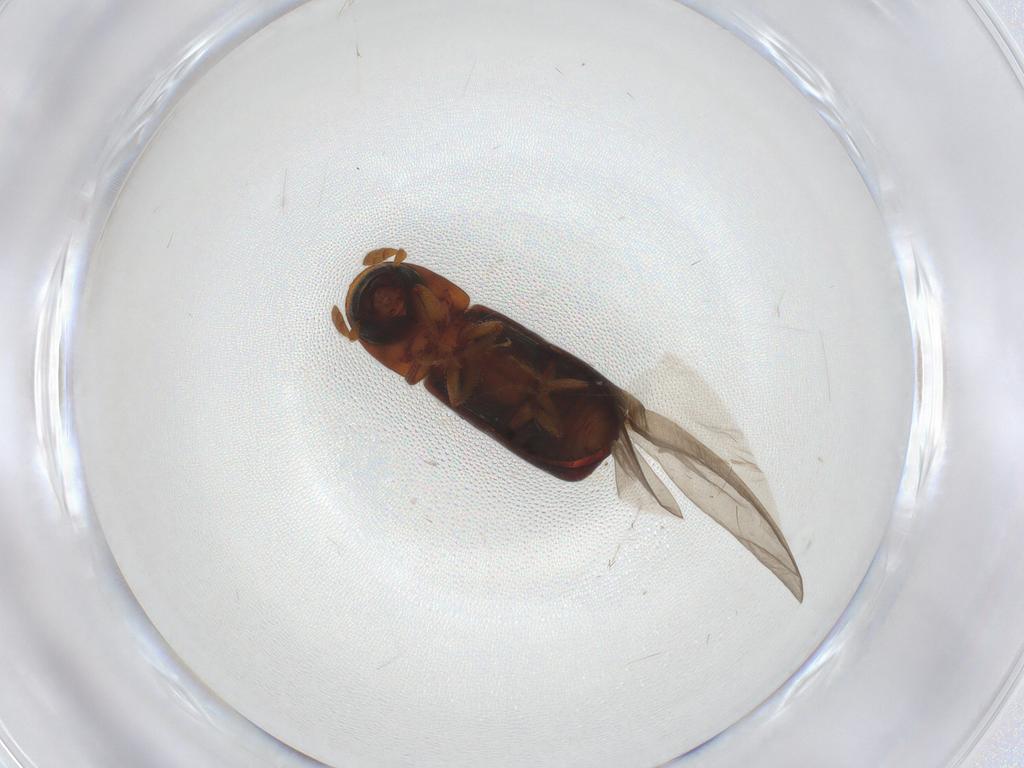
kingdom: Animalia
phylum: Arthropoda
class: Insecta
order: Coleoptera
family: Curculionidae
